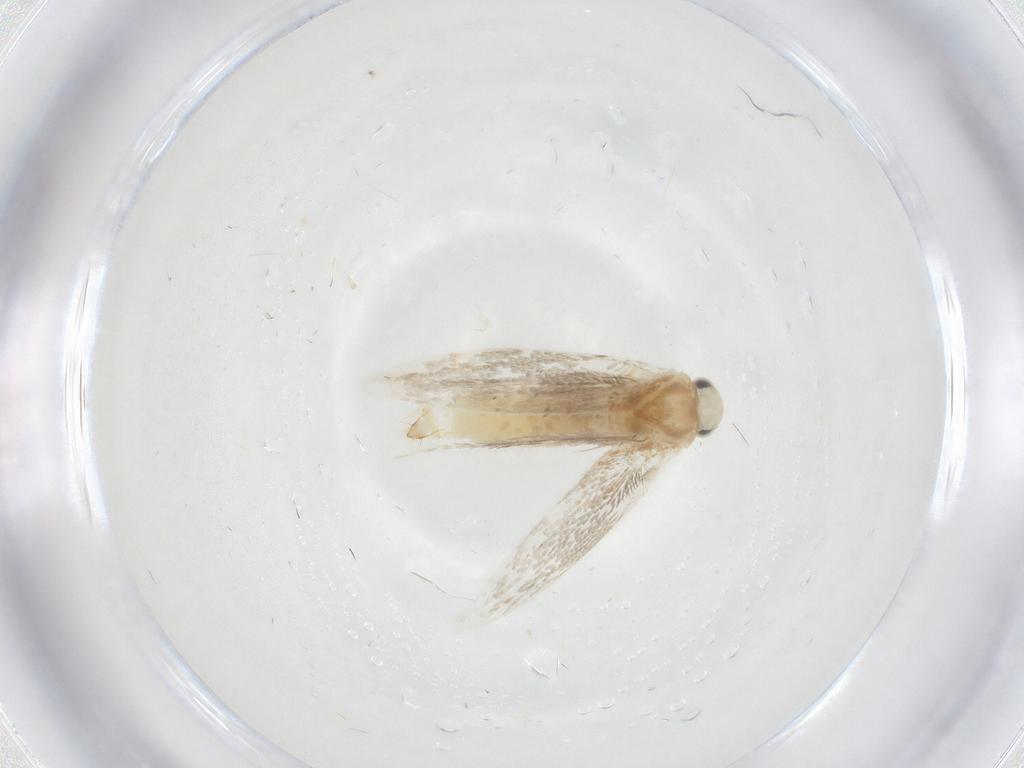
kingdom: Animalia
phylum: Arthropoda
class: Insecta
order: Lepidoptera
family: Gracillariidae
